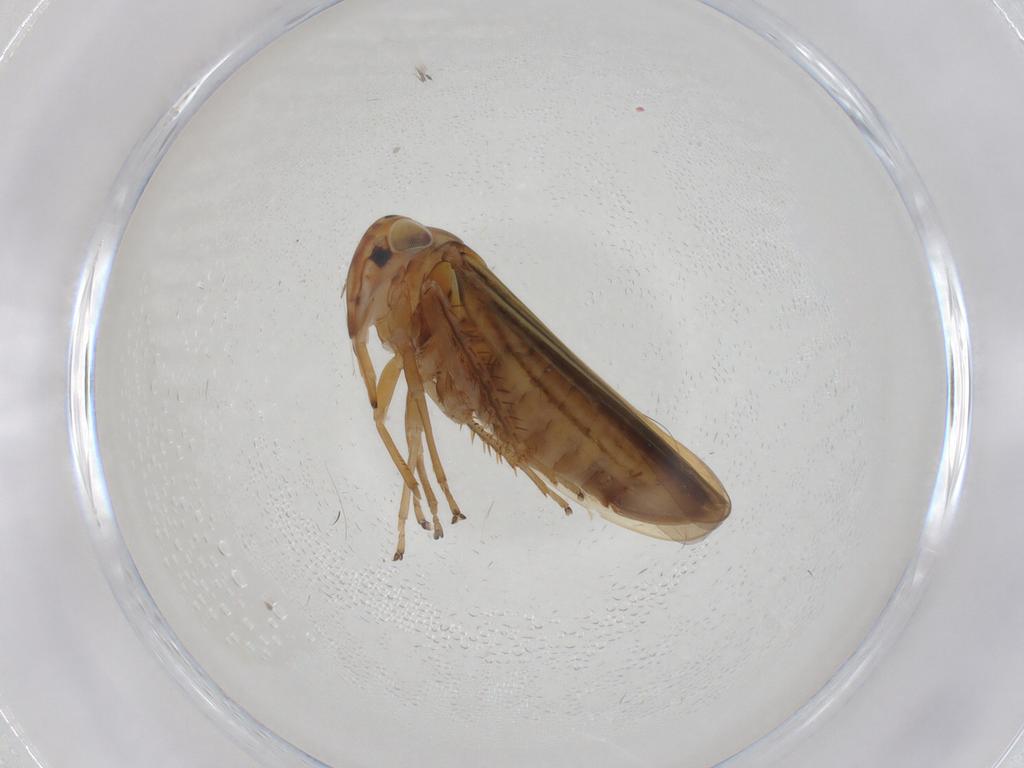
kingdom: Animalia
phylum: Arthropoda
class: Insecta
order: Hemiptera
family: Cicadellidae
